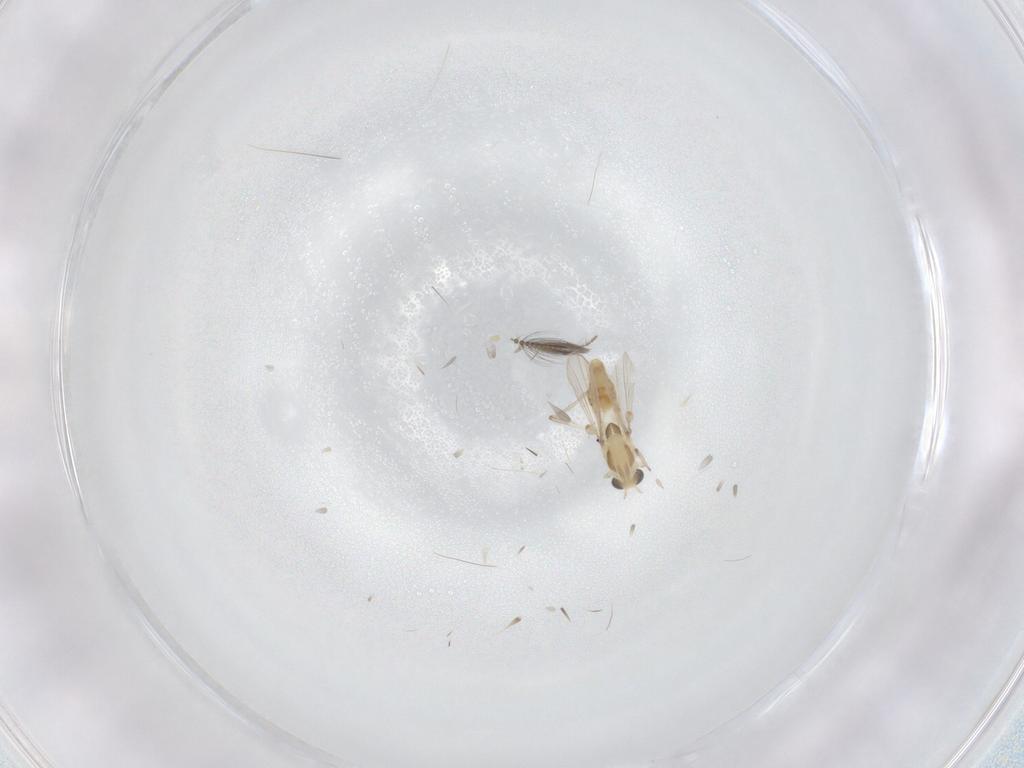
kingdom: Animalia
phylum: Arthropoda
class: Insecta
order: Diptera
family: Chironomidae
